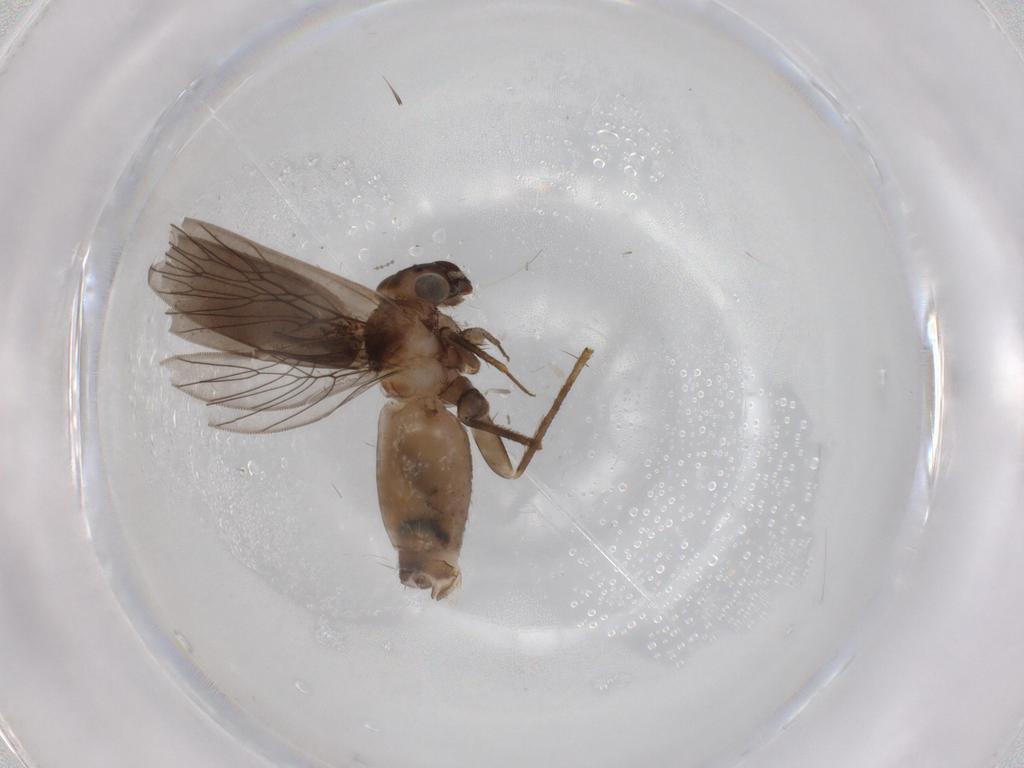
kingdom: Animalia
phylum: Arthropoda
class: Insecta
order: Psocodea
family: Lepidopsocidae
